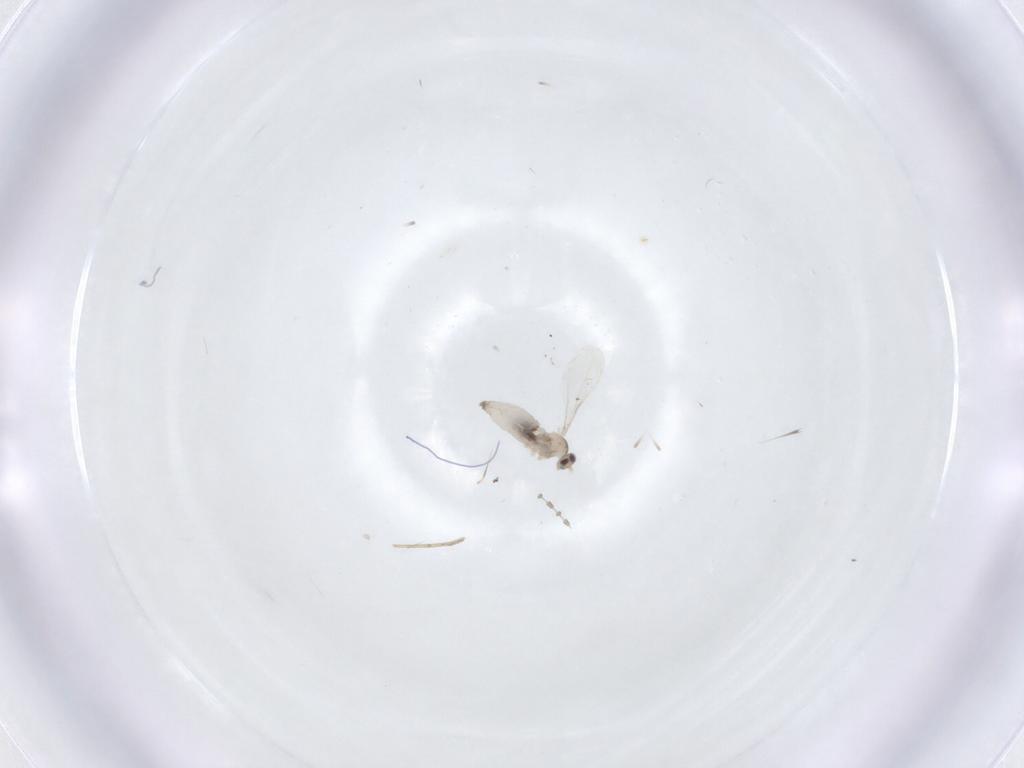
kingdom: Animalia
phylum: Arthropoda
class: Insecta
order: Diptera
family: Cecidomyiidae
